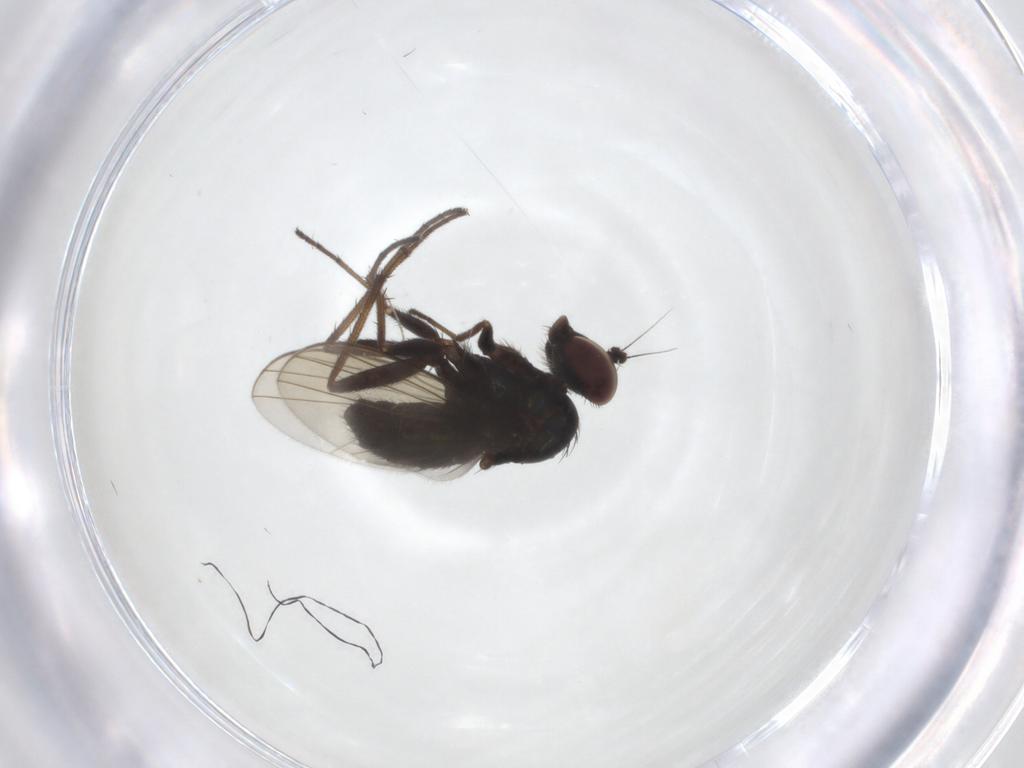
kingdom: Animalia
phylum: Arthropoda
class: Insecta
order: Diptera
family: Dolichopodidae
